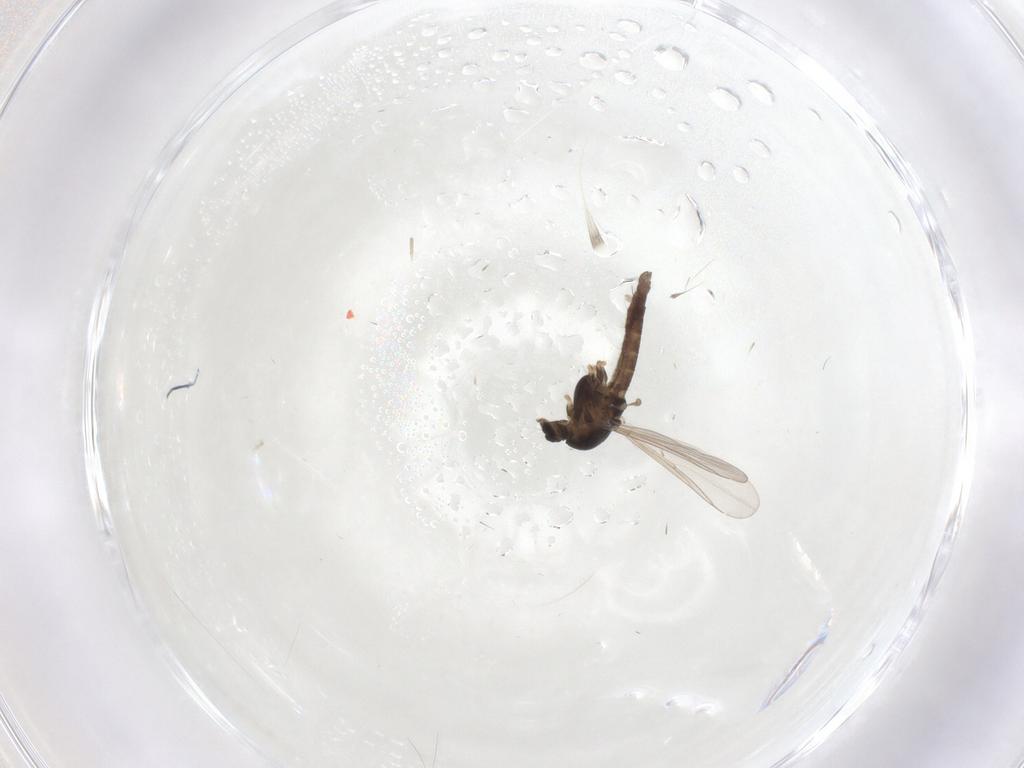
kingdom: Animalia
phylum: Arthropoda
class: Insecta
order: Diptera
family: Chironomidae
